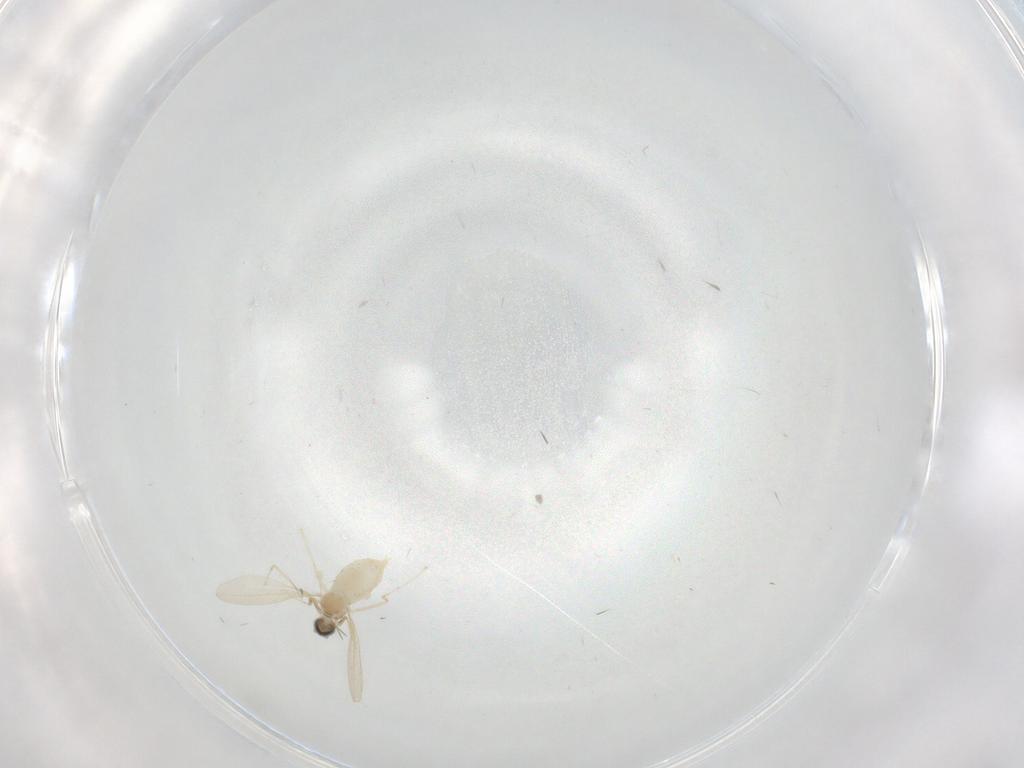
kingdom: Animalia
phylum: Arthropoda
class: Insecta
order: Diptera
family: Cecidomyiidae
